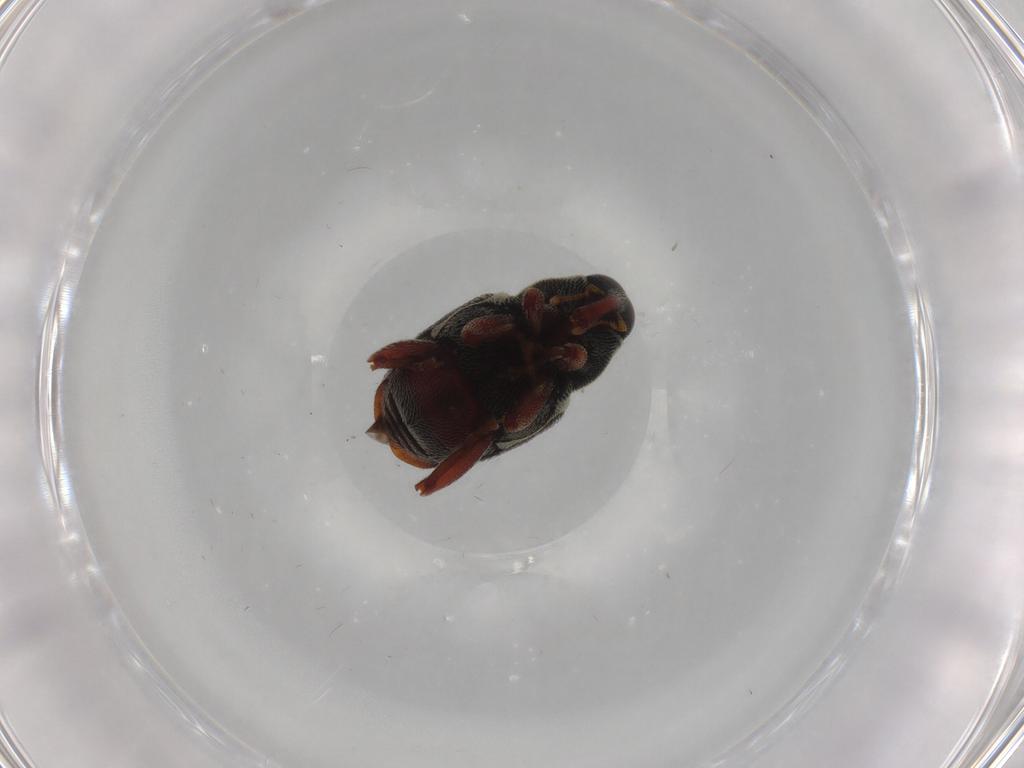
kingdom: Animalia
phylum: Arthropoda
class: Insecta
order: Coleoptera
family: Curculionidae
